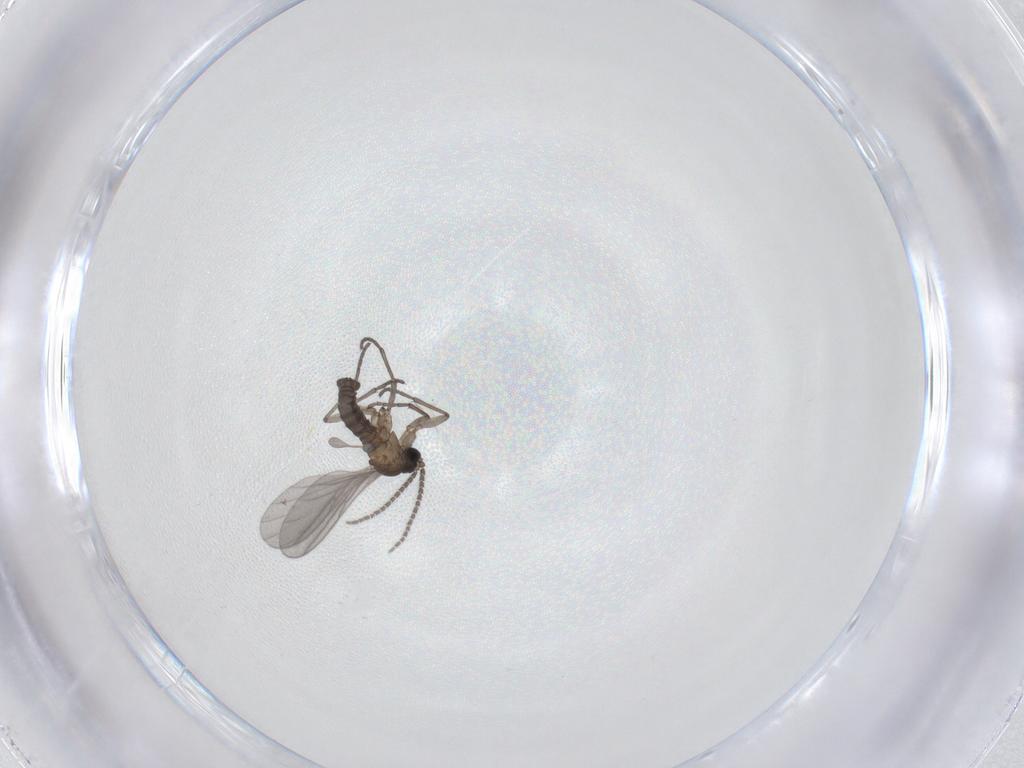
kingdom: Animalia
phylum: Arthropoda
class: Insecta
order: Diptera
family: Sciaridae
